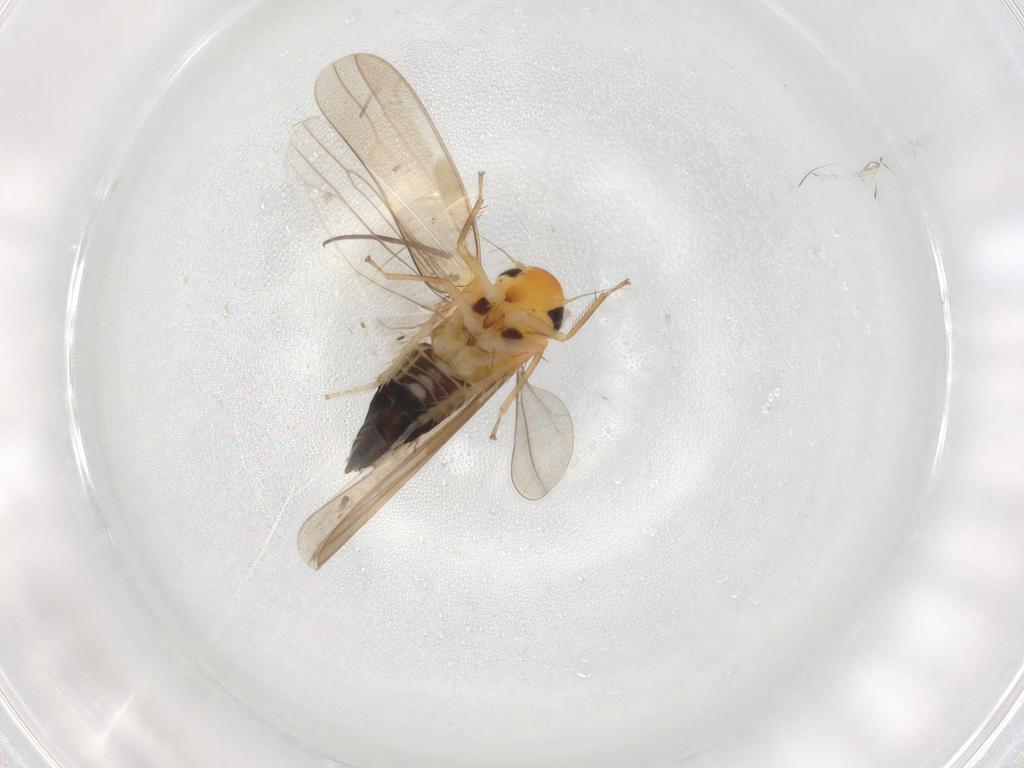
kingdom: Animalia
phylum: Arthropoda
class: Insecta
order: Hemiptera
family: Cicadellidae
